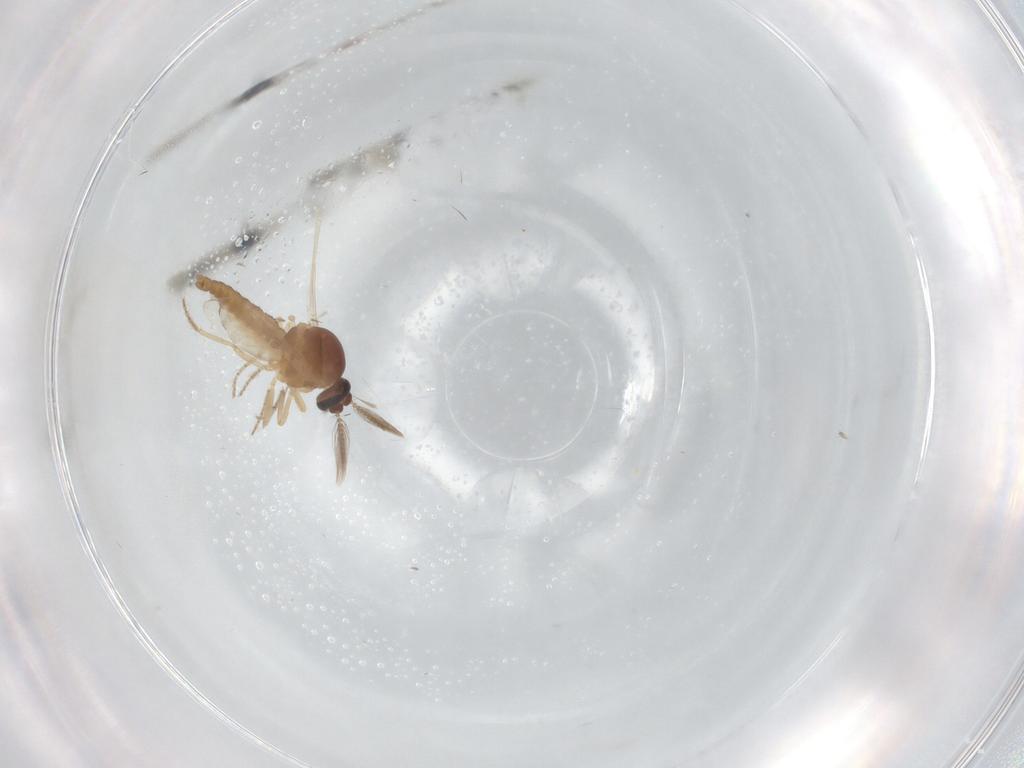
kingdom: Animalia
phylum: Arthropoda
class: Insecta
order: Diptera
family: Ceratopogonidae
